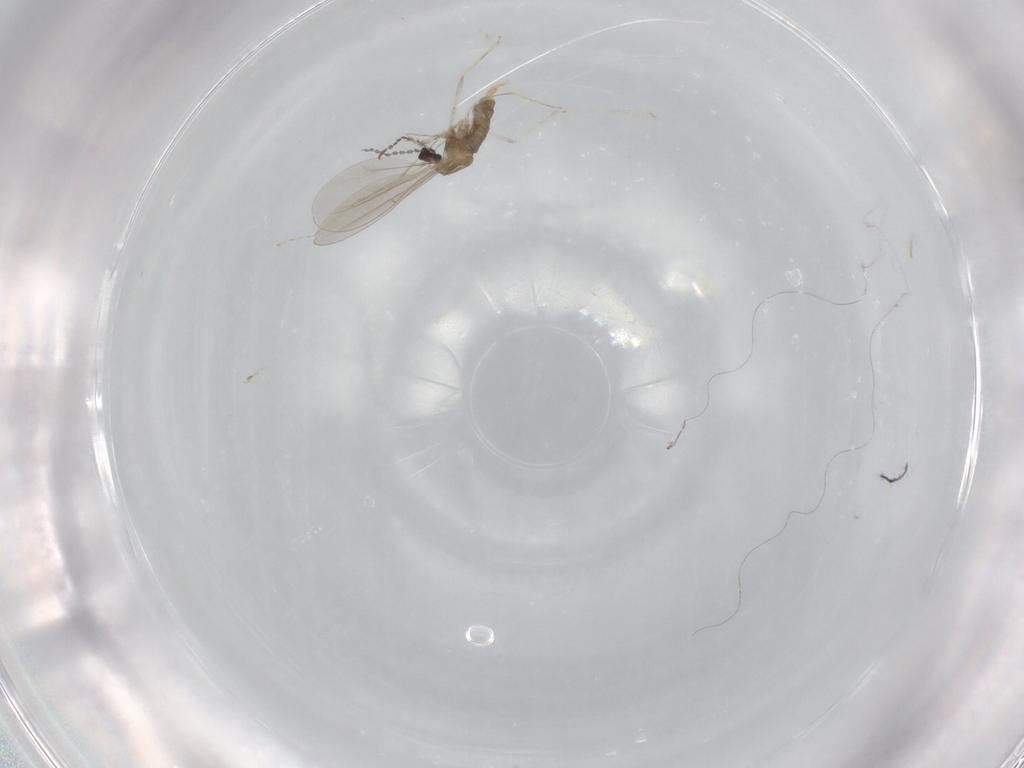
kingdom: Animalia
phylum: Arthropoda
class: Insecta
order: Diptera
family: Cecidomyiidae
